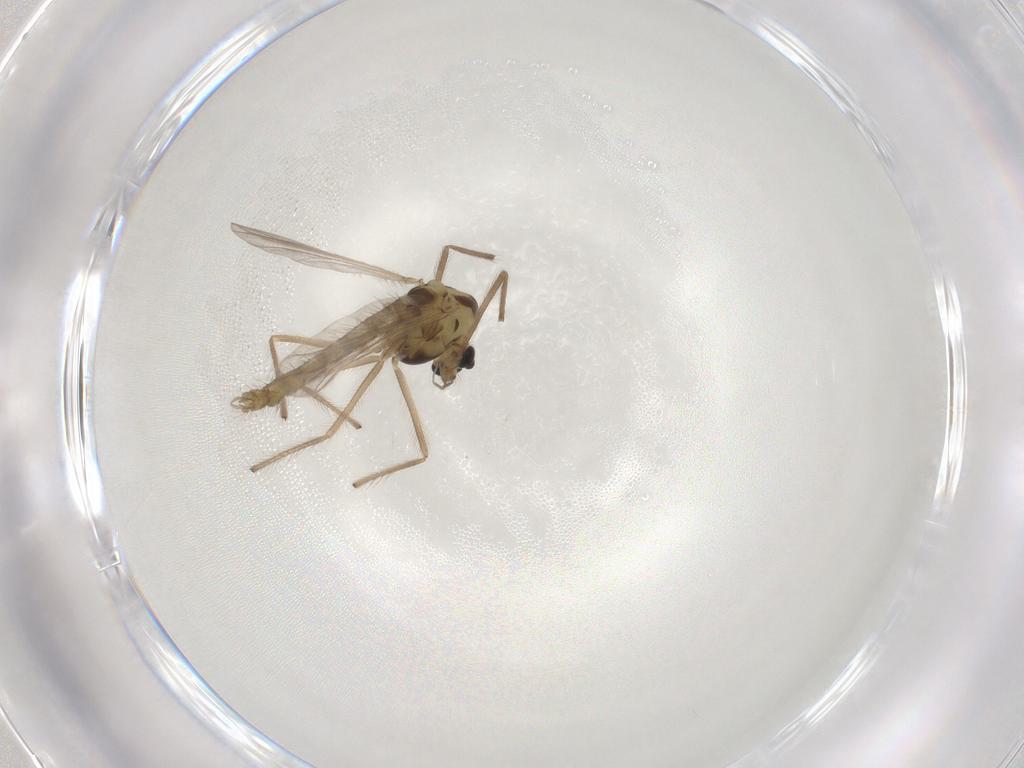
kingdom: Animalia
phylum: Arthropoda
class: Insecta
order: Diptera
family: Chironomidae
